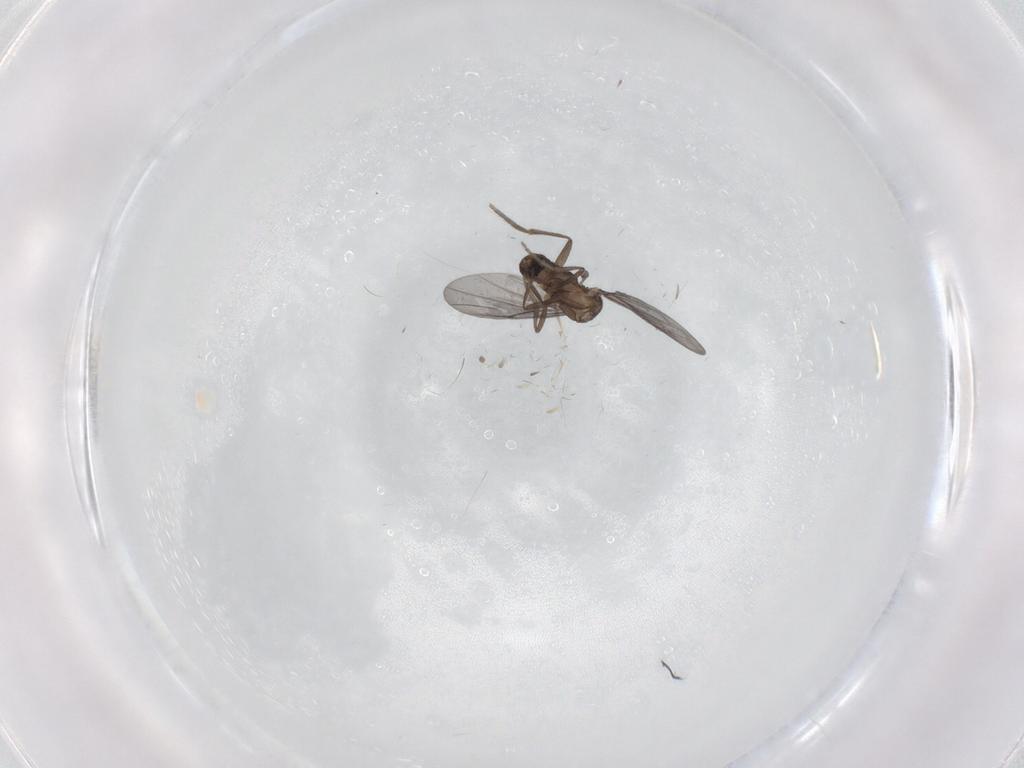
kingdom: Animalia
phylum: Arthropoda
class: Insecta
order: Diptera
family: Phoridae
